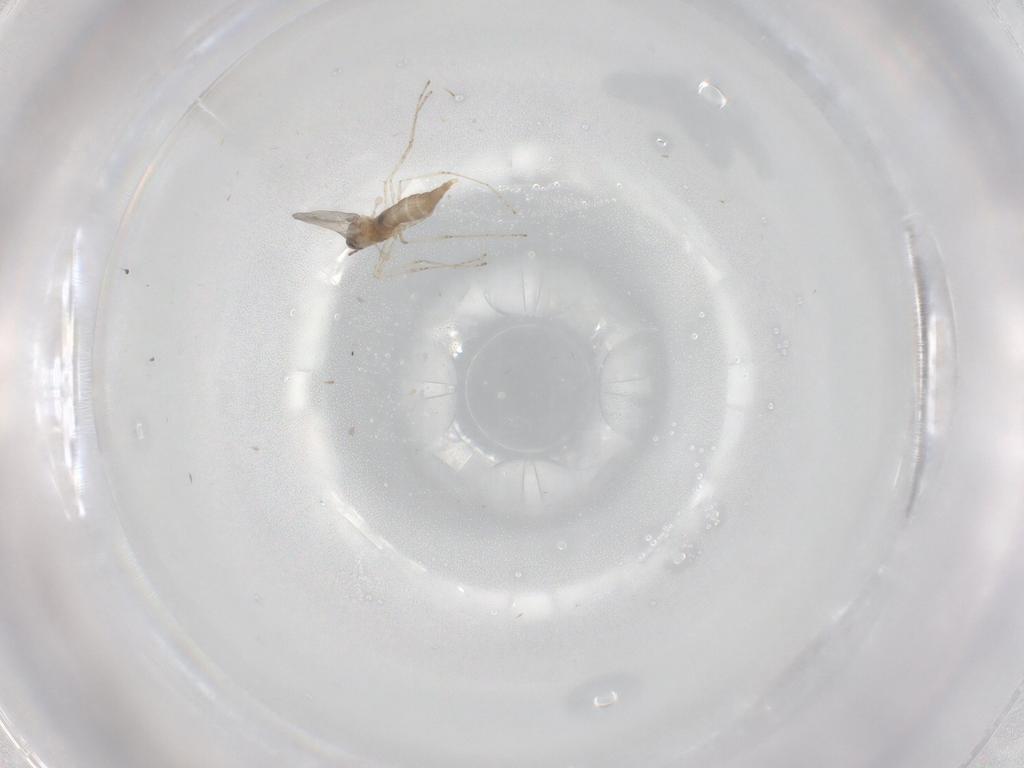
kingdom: Animalia
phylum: Arthropoda
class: Insecta
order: Diptera
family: Cecidomyiidae
